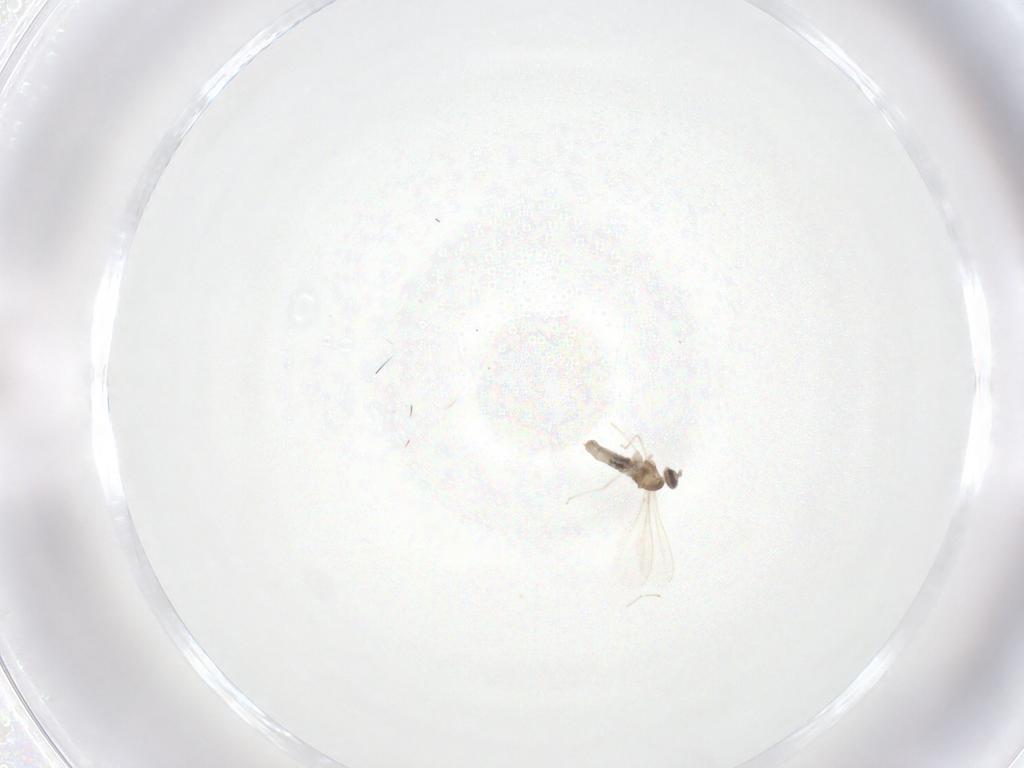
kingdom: Animalia
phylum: Arthropoda
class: Insecta
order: Diptera
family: Cecidomyiidae
